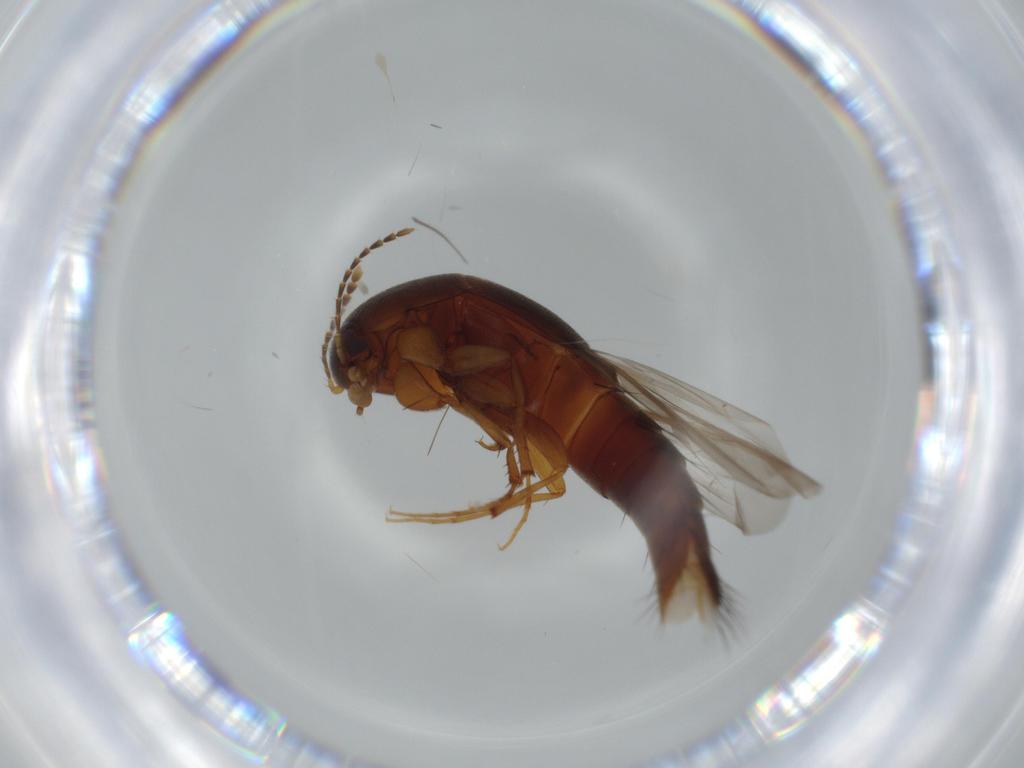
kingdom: Animalia
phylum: Arthropoda
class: Insecta
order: Coleoptera
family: Staphylinidae
